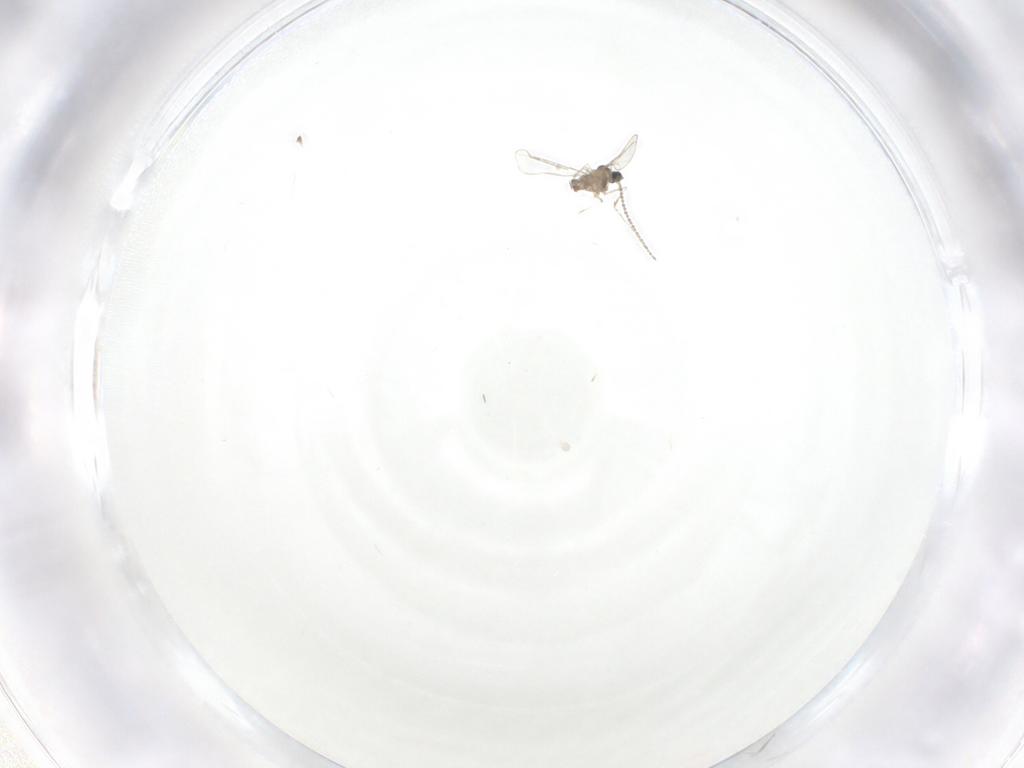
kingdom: Animalia
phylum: Arthropoda
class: Insecta
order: Diptera
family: Cecidomyiidae
